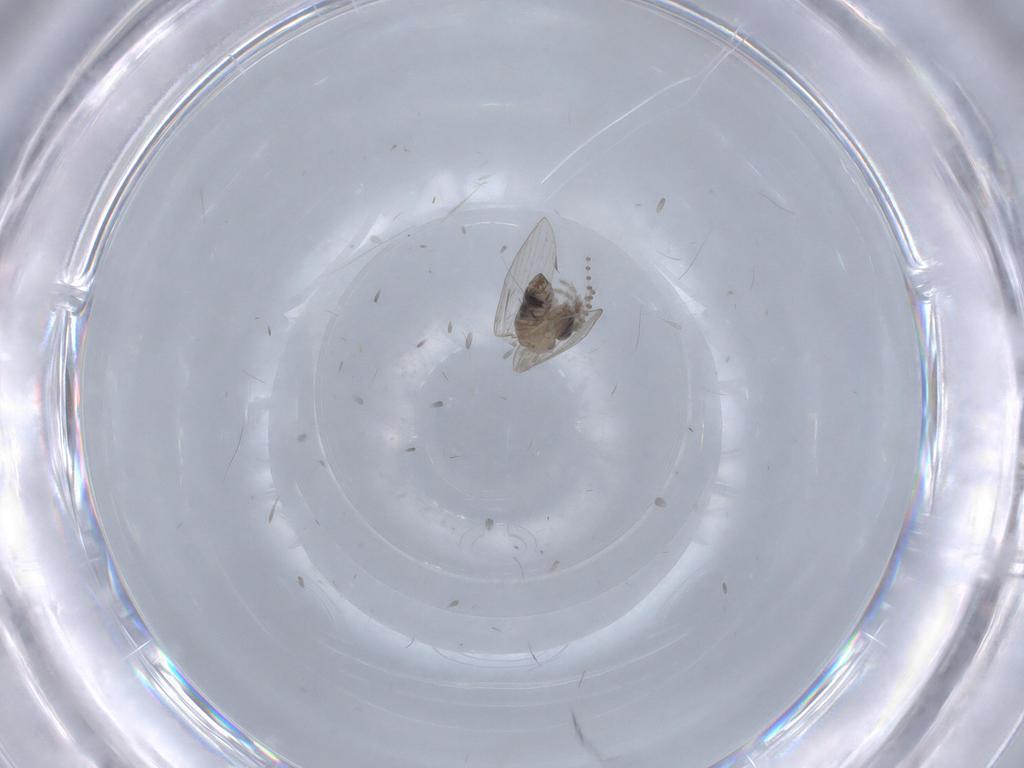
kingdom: Animalia
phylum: Arthropoda
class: Insecta
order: Diptera
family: Psychodidae
